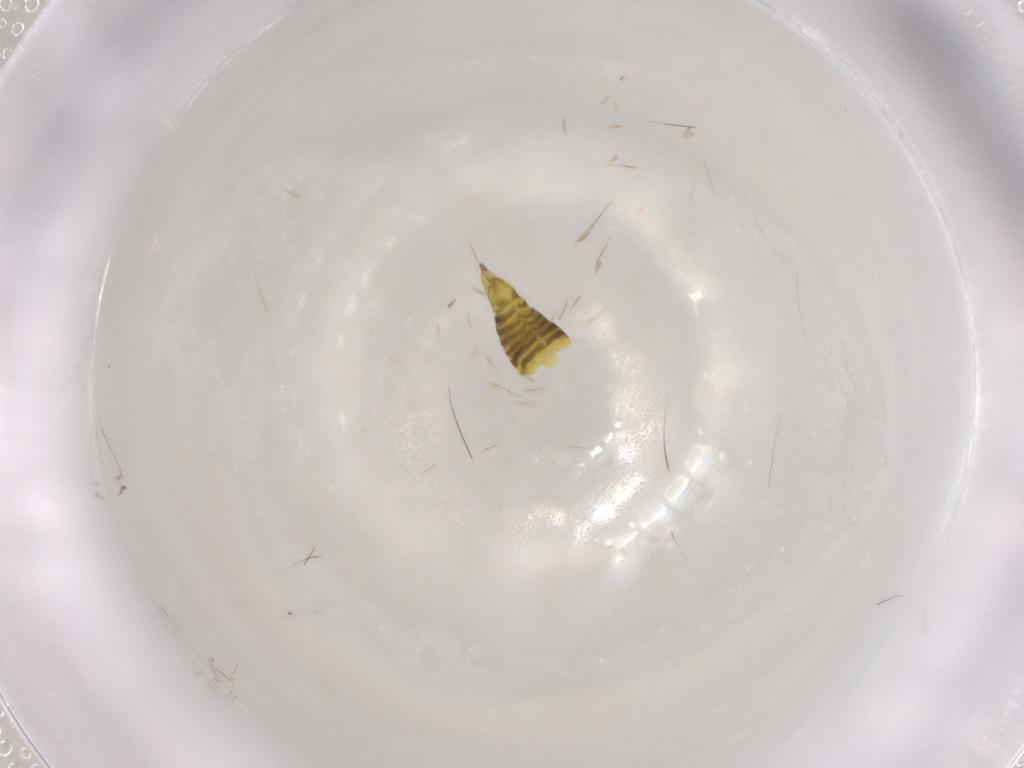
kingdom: Animalia
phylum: Arthropoda
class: Insecta
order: Hemiptera
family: Cicadellidae
